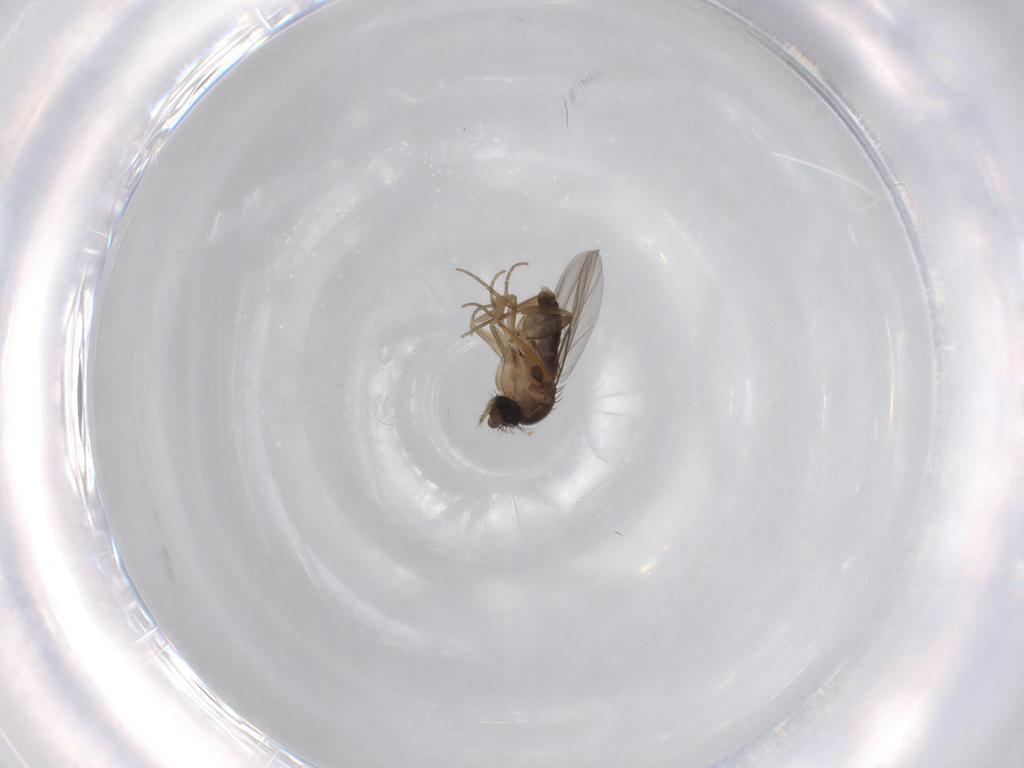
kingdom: Animalia
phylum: Arthropoda
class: Insecta
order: Diptera
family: Phoridae
